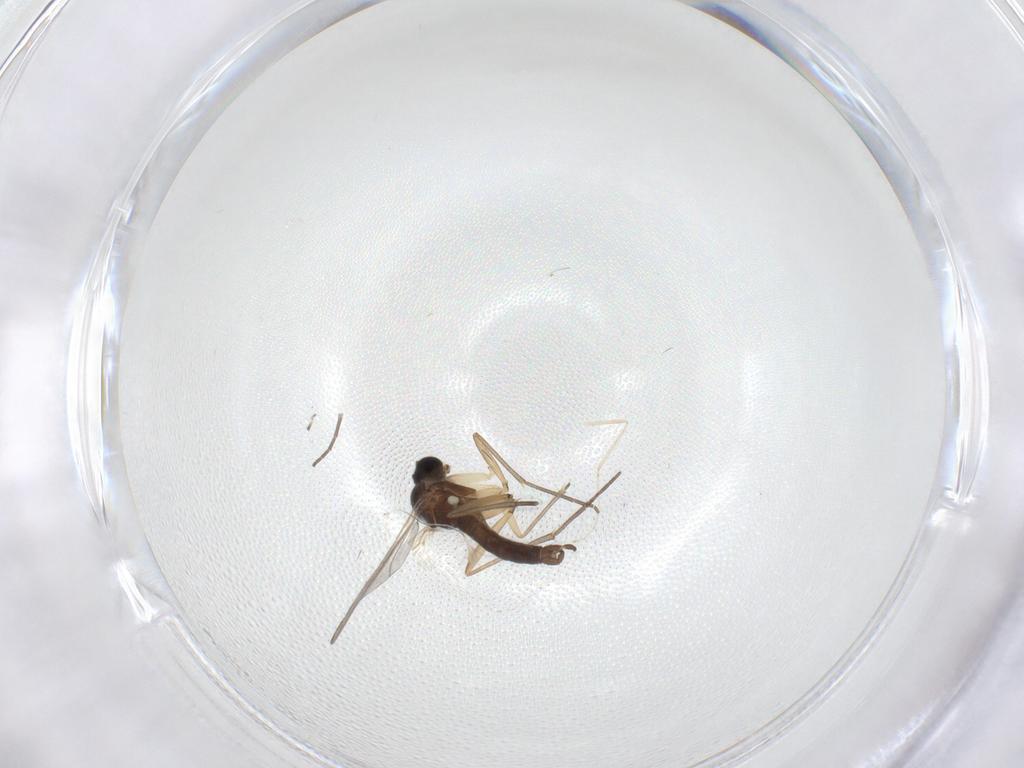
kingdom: Animalia
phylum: Arthropoda
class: Insecta
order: Diptera
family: Sciaridae
